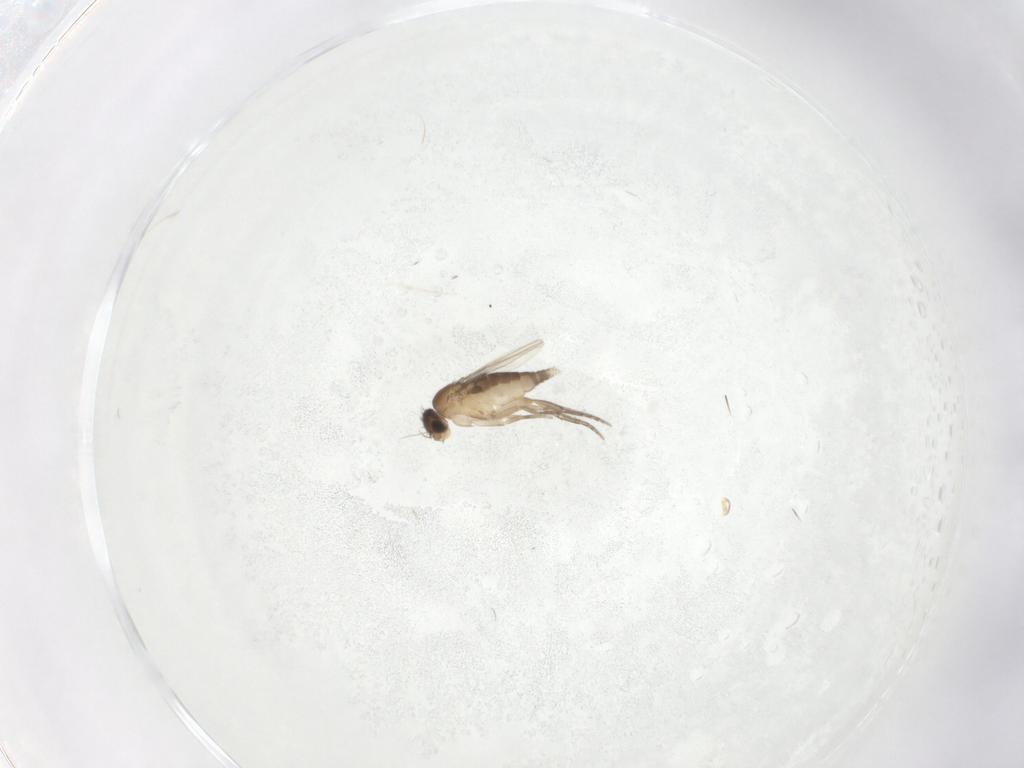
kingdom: Animalia
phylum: Arthropoda
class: Insecta
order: Diptera
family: Phoridae
